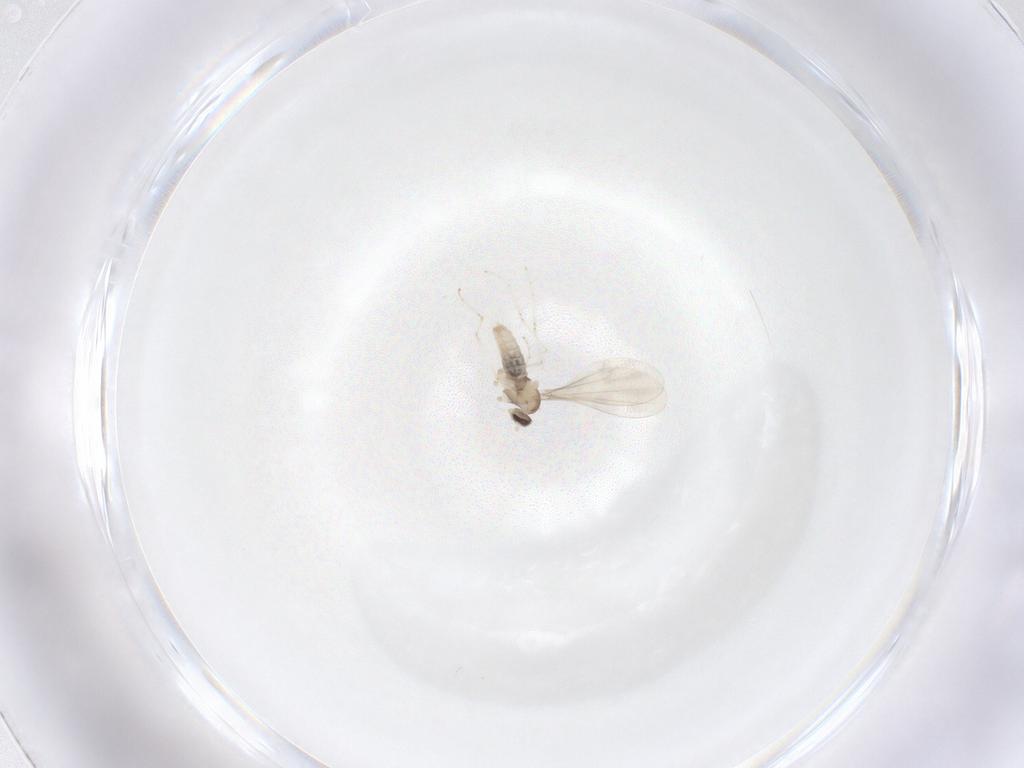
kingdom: Animalia
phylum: Arthropoda
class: Insecta
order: Diptera
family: Cecidomyiidae
